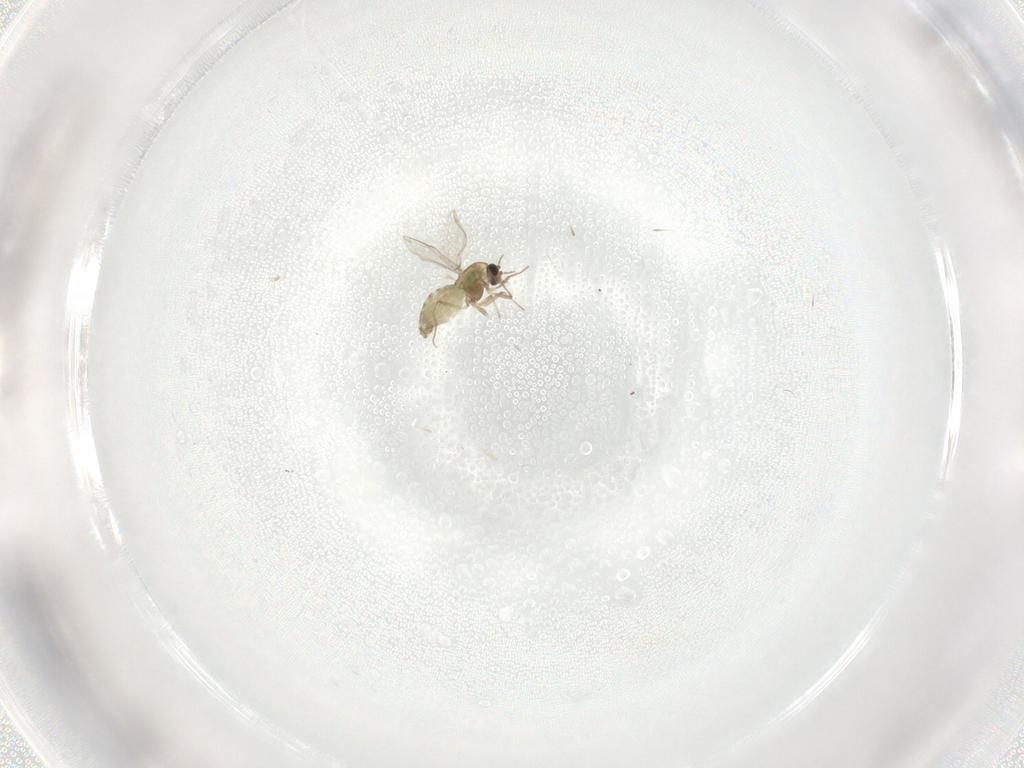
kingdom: Animalia
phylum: Arthropoda
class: Insecta
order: Diptera
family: Chironomidae
